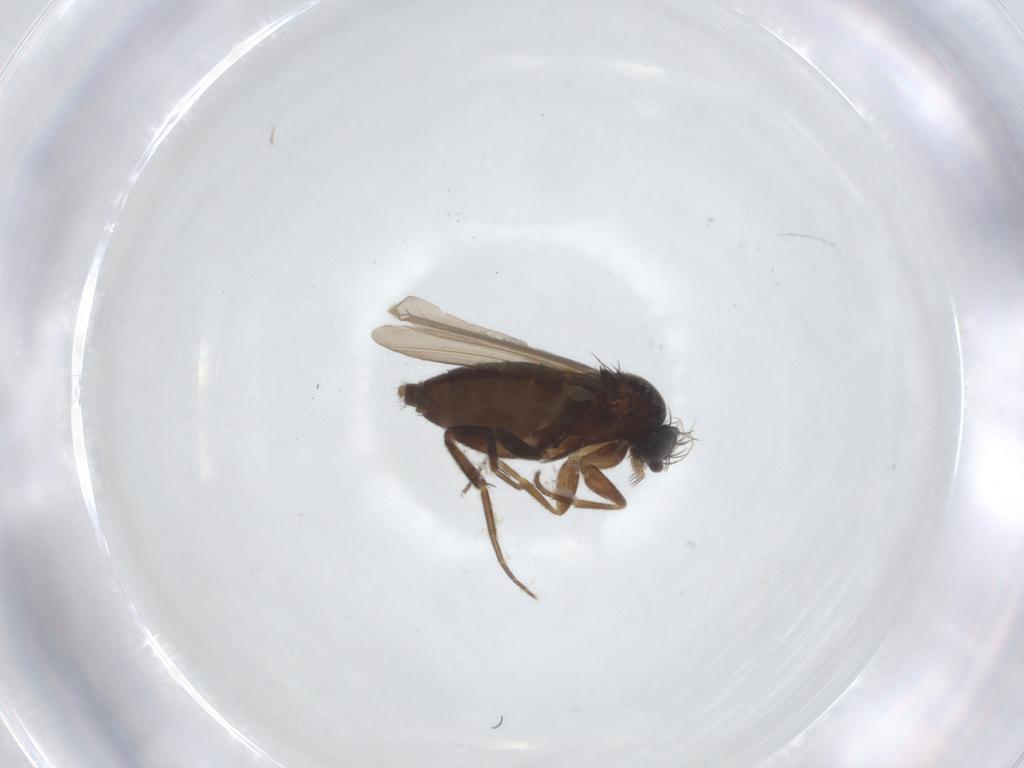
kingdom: Animalia
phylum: Arthropoda
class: Insecta
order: Diptera
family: Phoridae
